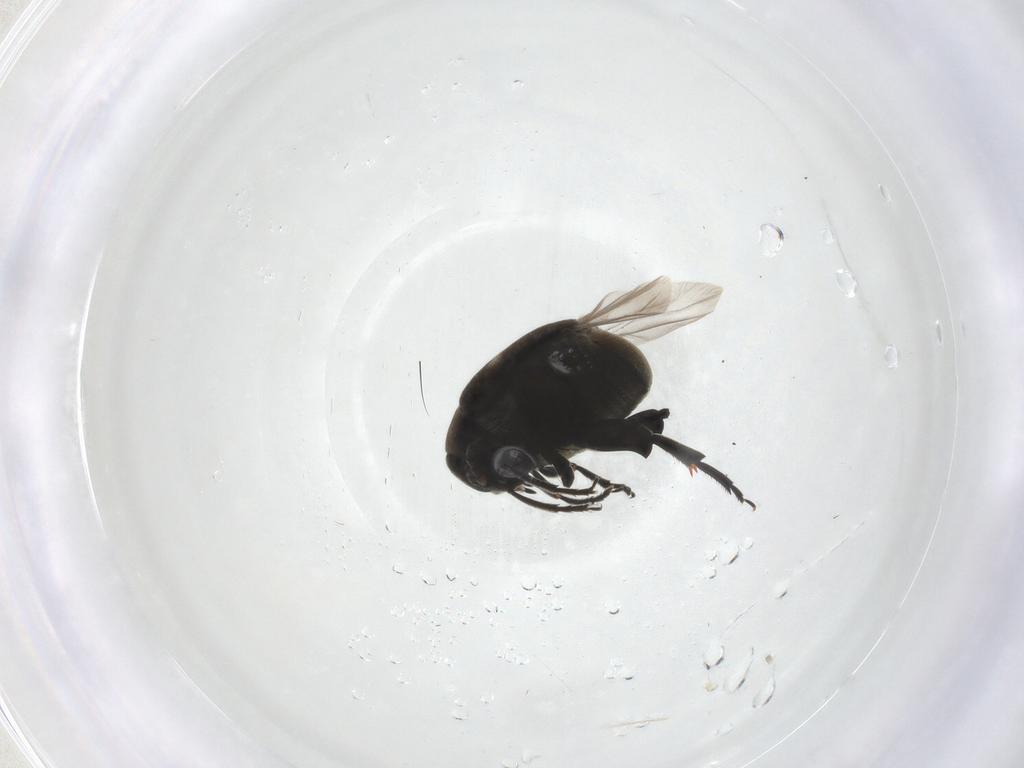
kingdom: Animalia
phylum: Arthropoda
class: Insecta
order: Coleoptera
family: Chrysomelidae
